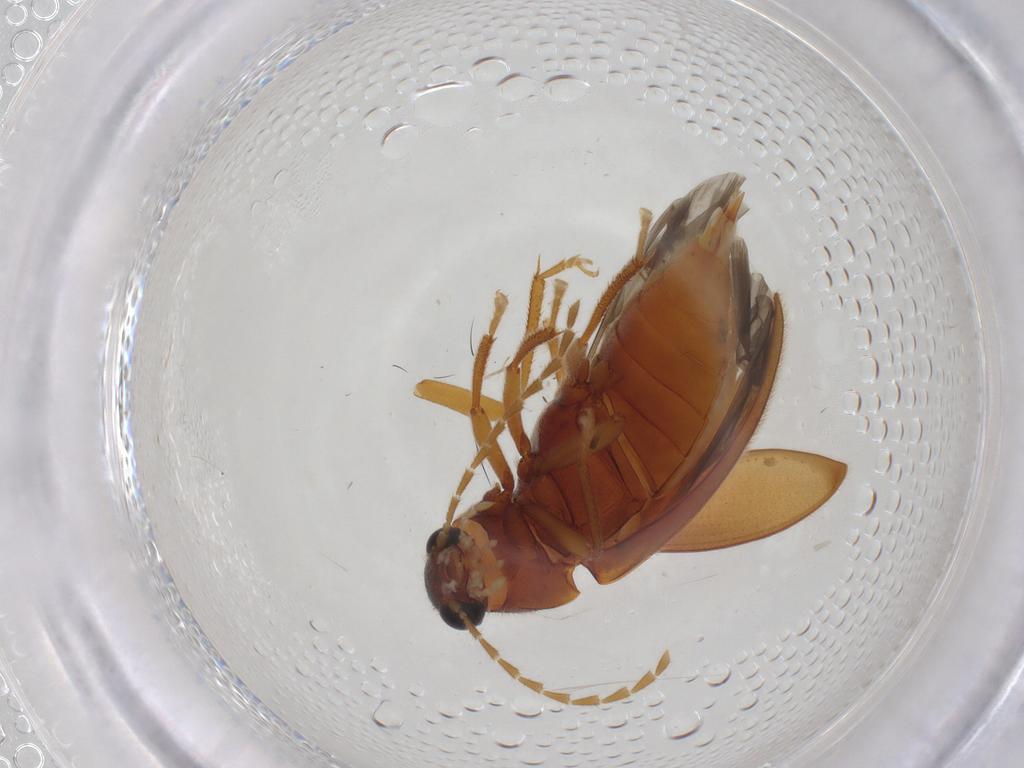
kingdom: Animalia
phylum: Arthropoda
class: Insecta
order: Coleoptera
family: Ptilodactylidae
